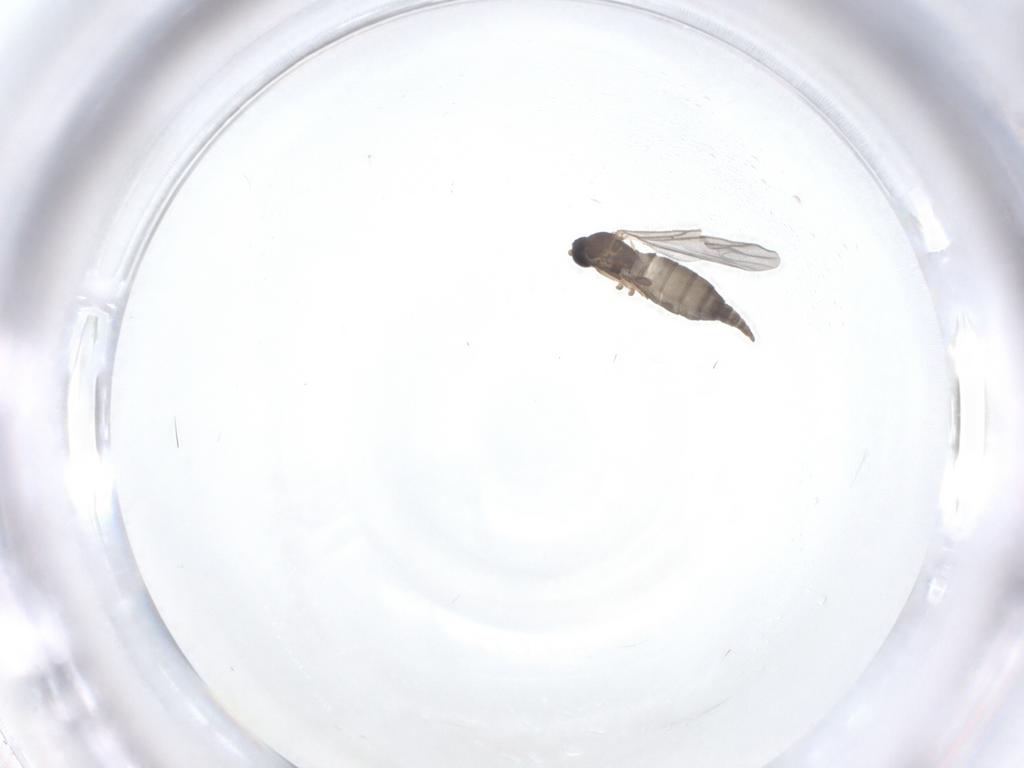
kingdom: Animalia
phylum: Arthropoda
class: Insecta
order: Diptera
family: Sciaridae
